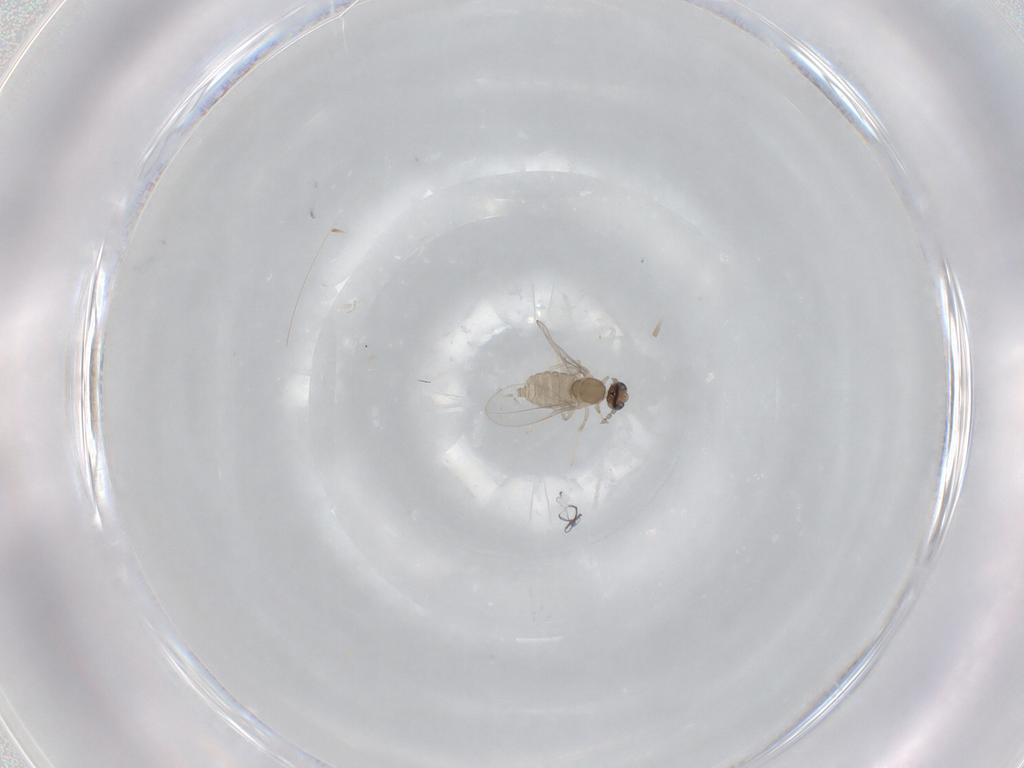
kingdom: Animalia
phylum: Arthropoda
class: Insecta
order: Diptera
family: Cecidomyiidae
